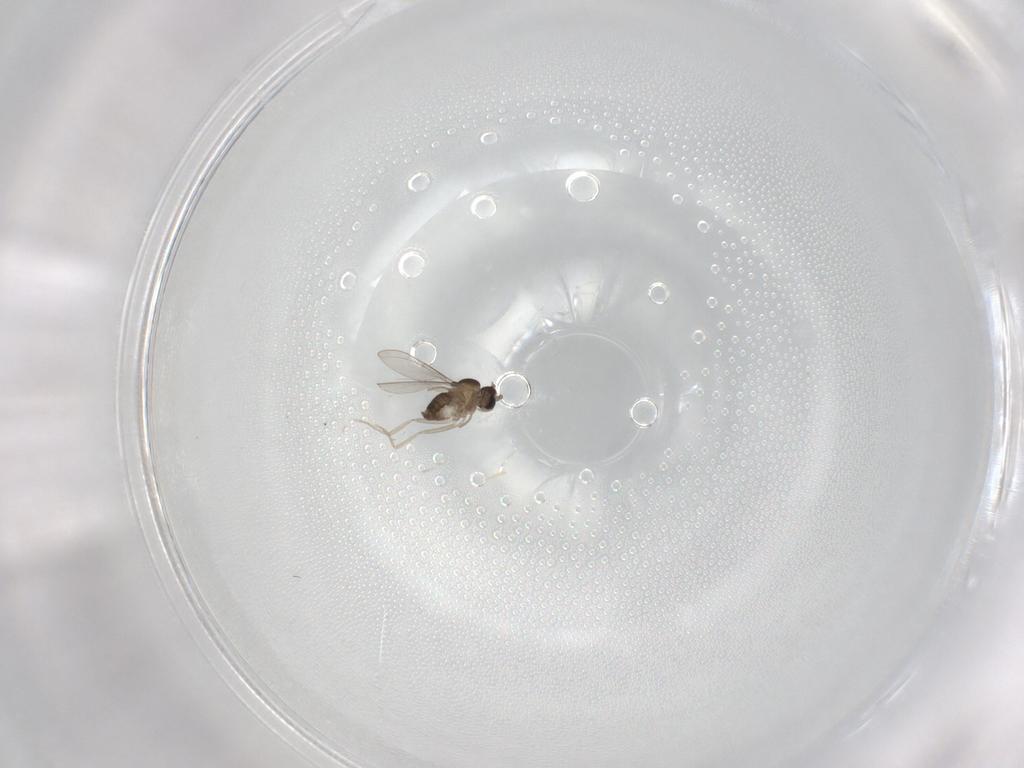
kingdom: Animalia
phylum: Arthropoda
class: Insecta
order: Diptera
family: Cecidomyiidae
